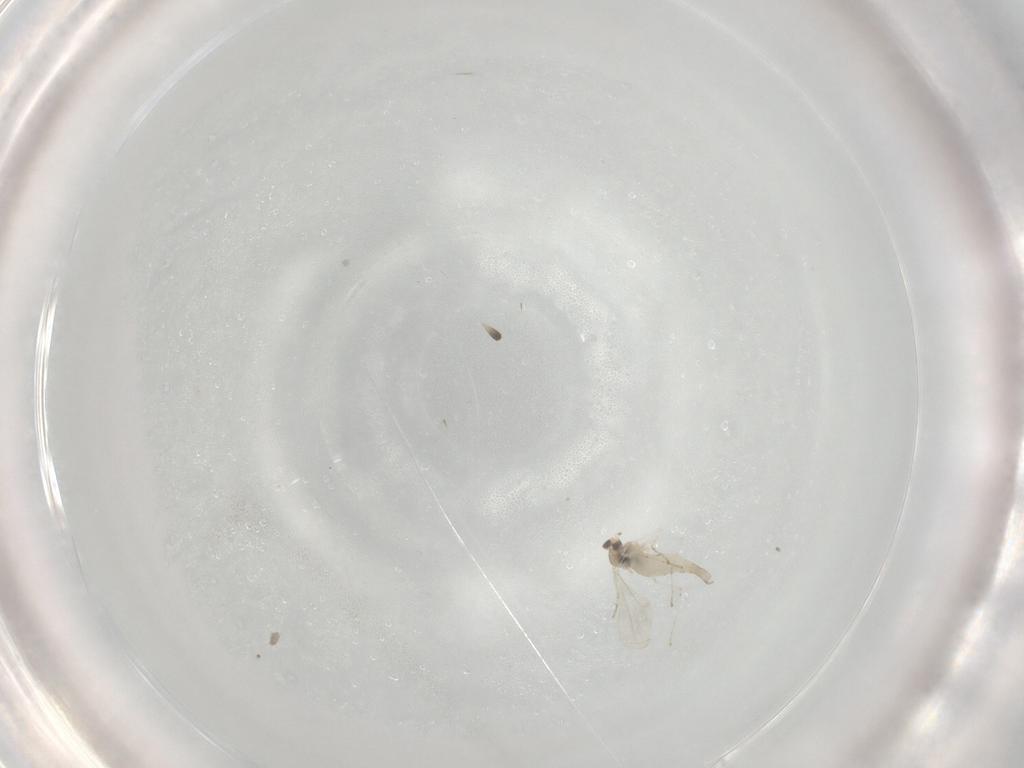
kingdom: Animalia
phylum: Arthropoda
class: Insecta
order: Diptera
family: Cecidomyiidae
